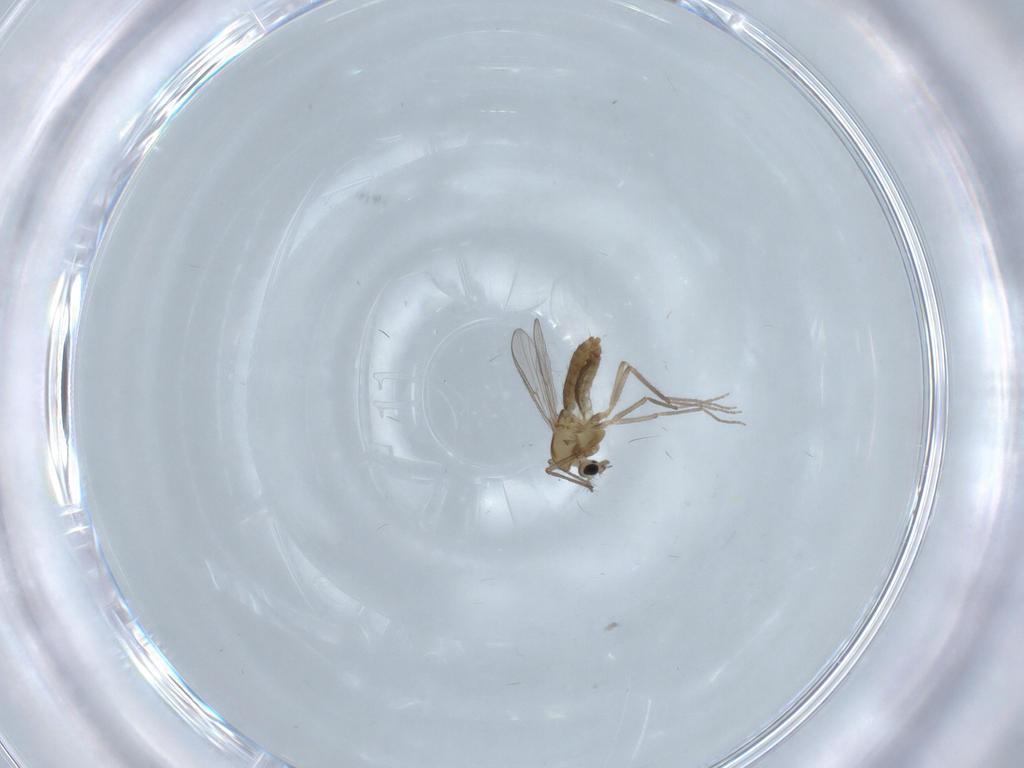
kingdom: Animalia
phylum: Arthropoda
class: Insecta
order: Diptera
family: Chironomidae
